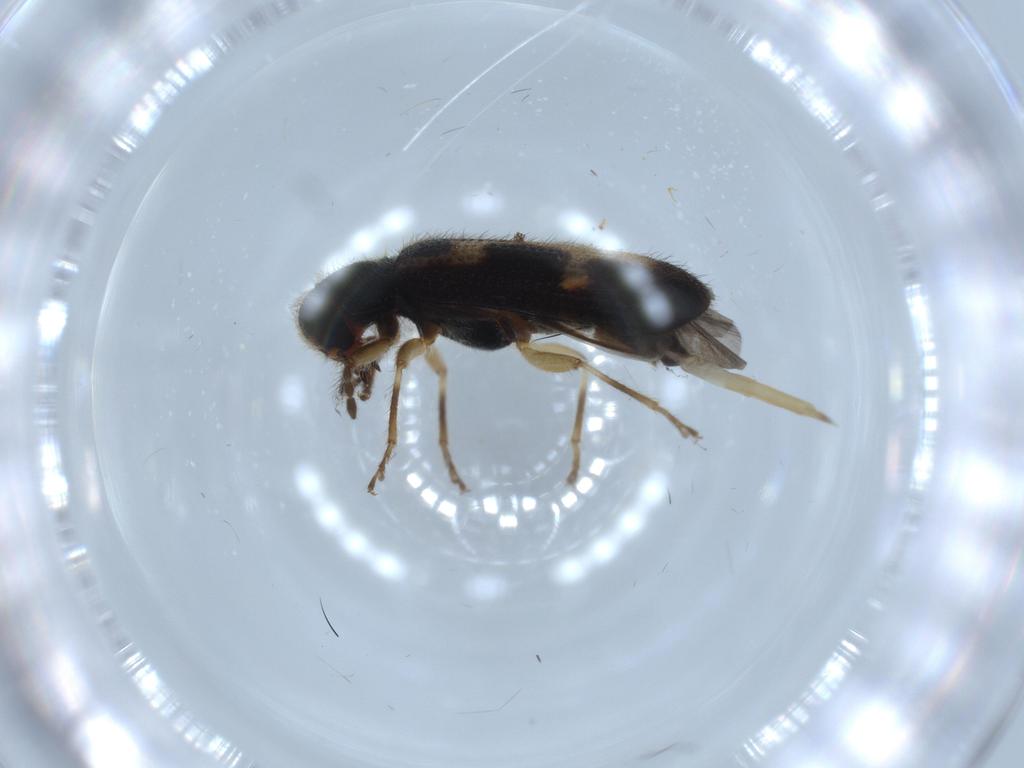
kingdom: Animalia
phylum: Arthropoda
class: Insecta
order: Coleoptera
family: Cleridae
